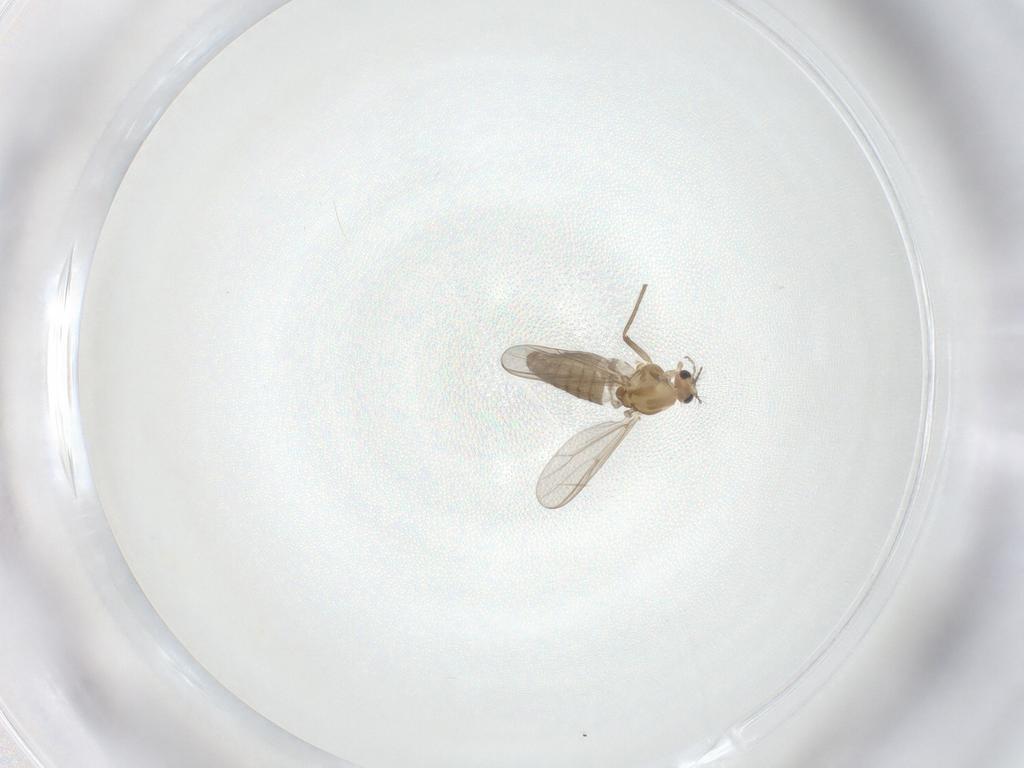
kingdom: Animalia
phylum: Arthropoda
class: Insecta
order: Diptera
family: Chironomidae
